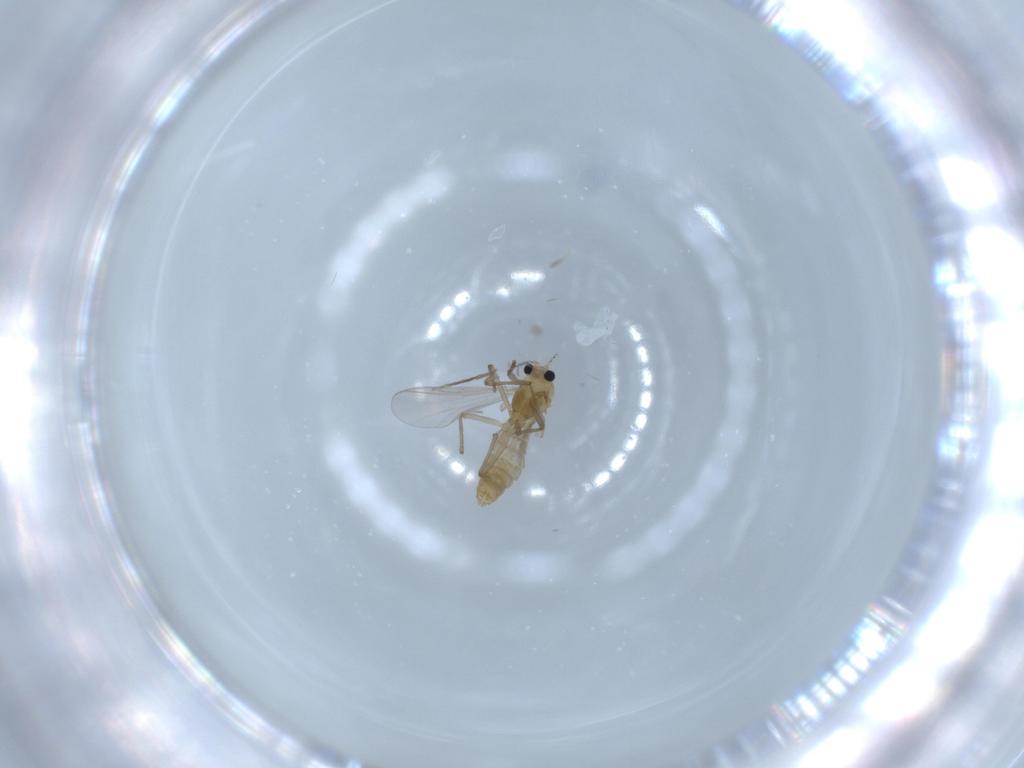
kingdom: Animalia
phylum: Arthropoda
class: Insecta
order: Diptera
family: Chironomidae
